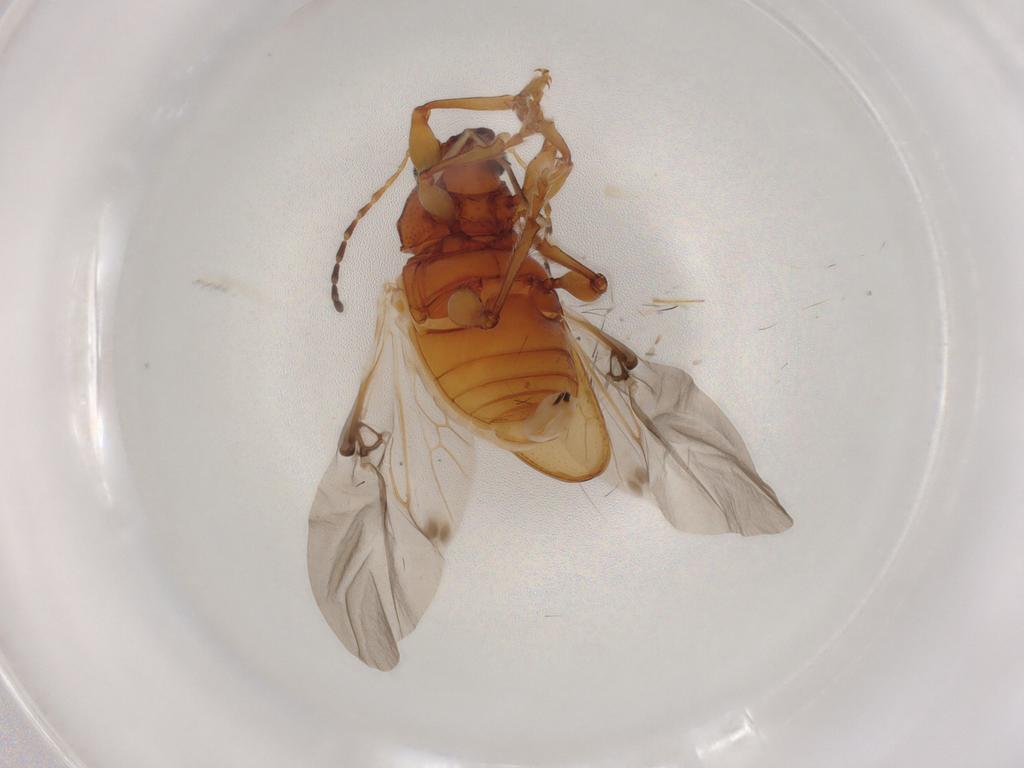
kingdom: Animalia
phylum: Arthropoda
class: Insecta
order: Coleoptera
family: Chrysomelidae
